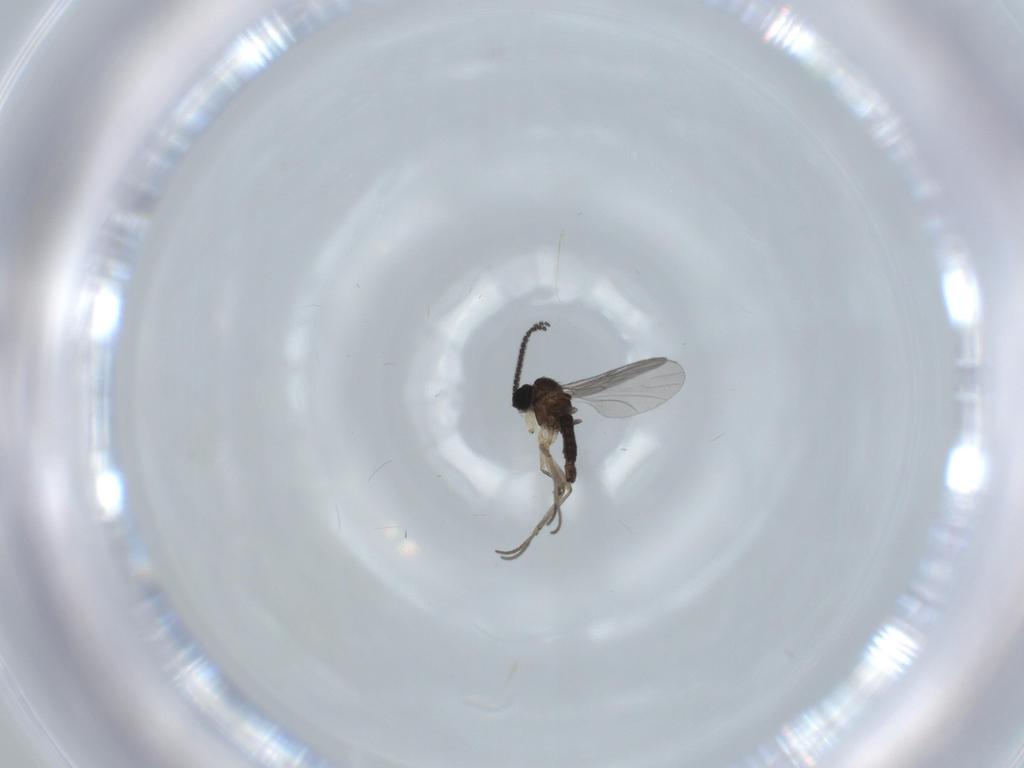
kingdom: Animalia
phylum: Arthropoda
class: Insecta
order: Diptera
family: Sciaridae
